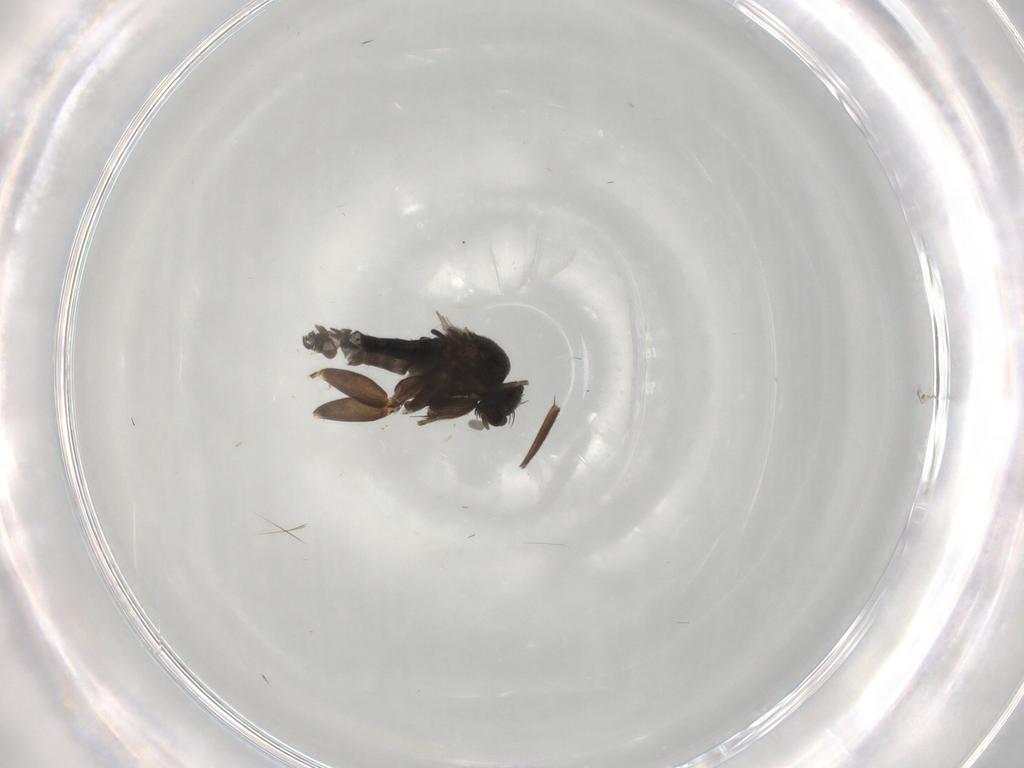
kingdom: Animalia
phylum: Arthropoda
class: Insecta
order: Diptera
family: Phoridae
